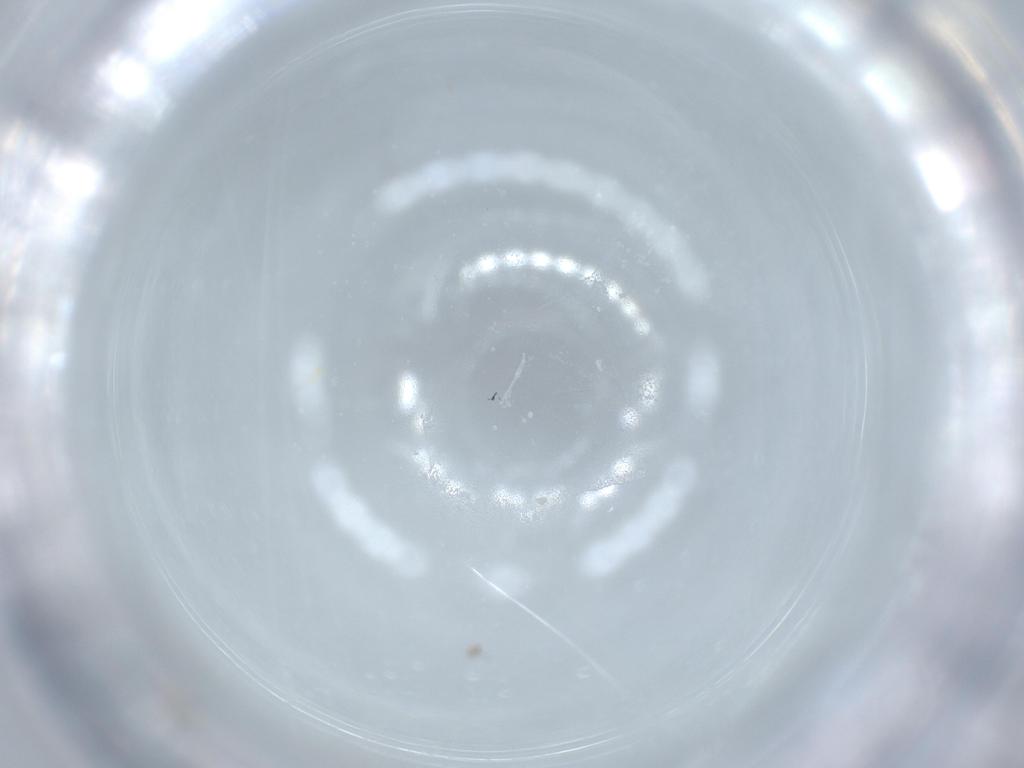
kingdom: Animalia
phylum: Arthropoda
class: Insecta
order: Hymenoptera
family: Trichogrammatidae
